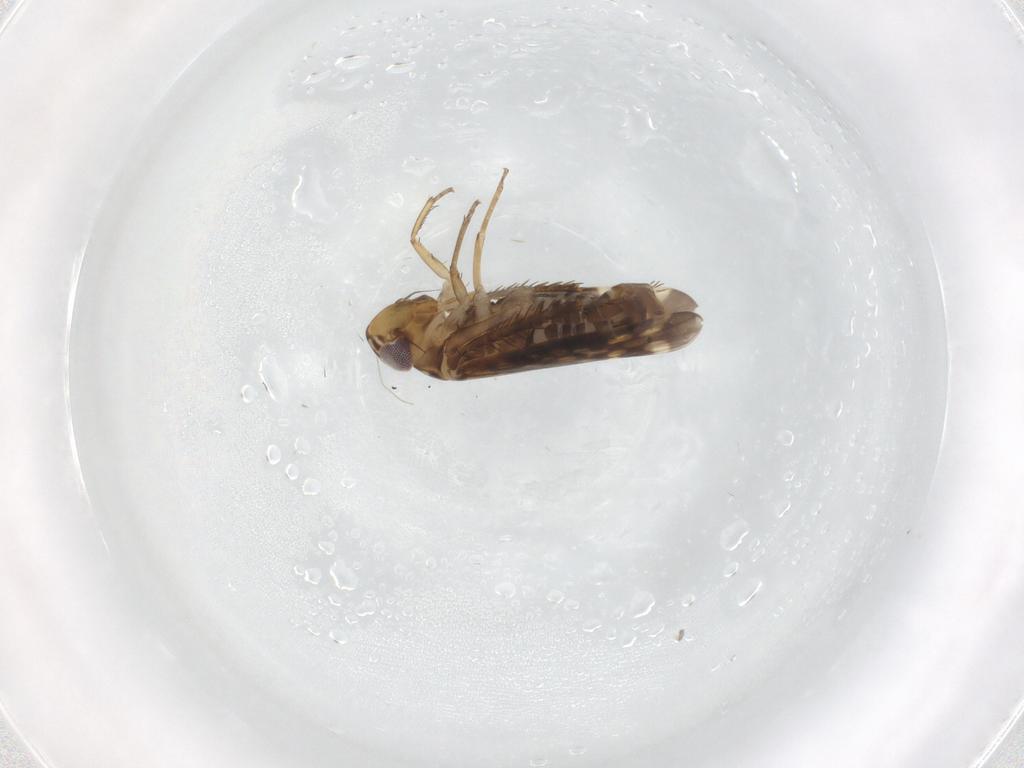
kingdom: Animalia
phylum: Arthropoda
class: Insecta
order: Hemiptera
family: Cicadellidae
